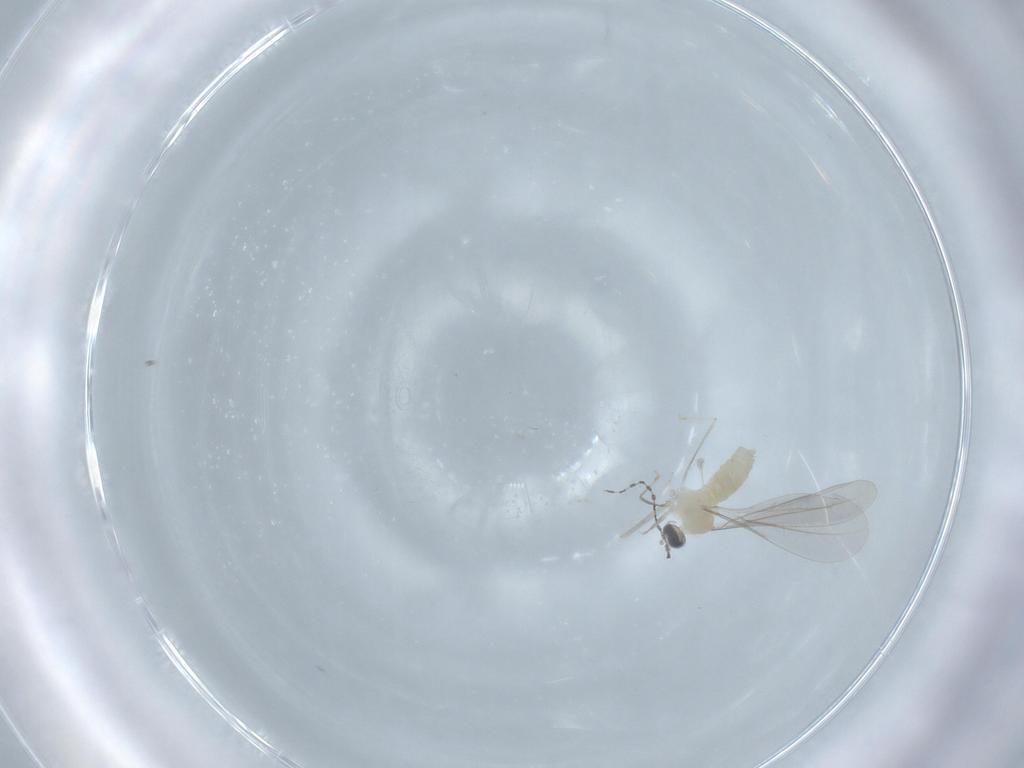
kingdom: Animalia
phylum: Arthropoda
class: Insecta
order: Diptera
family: Cecidomyiidae
